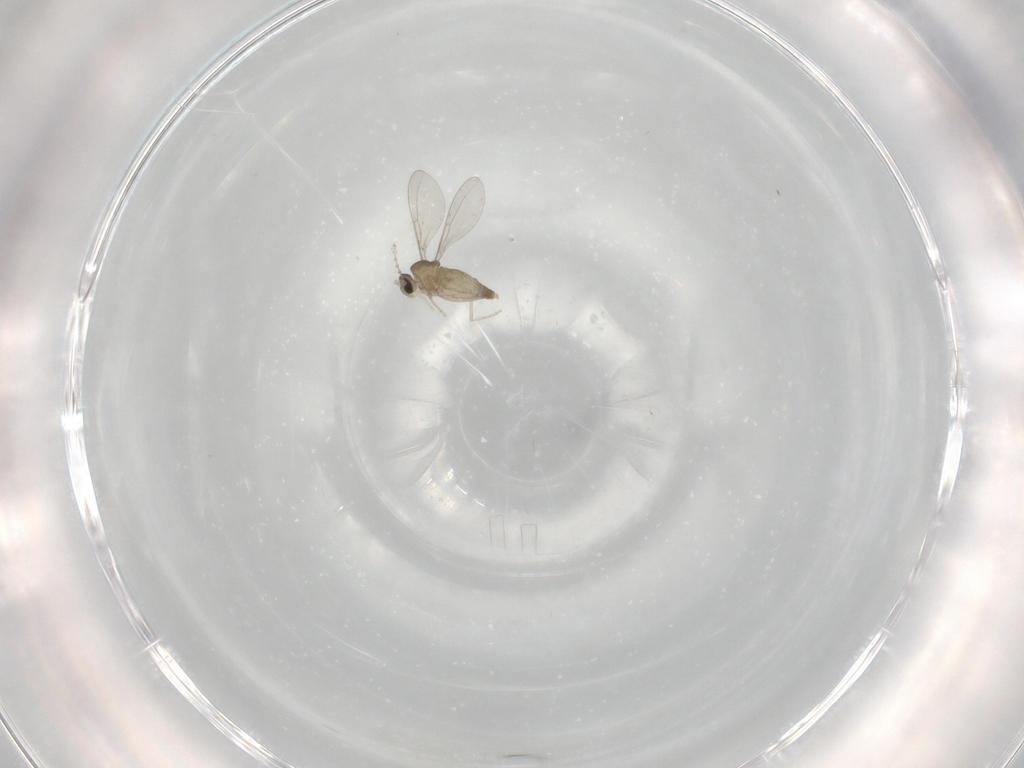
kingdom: Animalia
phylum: Arthropoda
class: Insecta
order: Diptera
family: Cecidomyiidae
